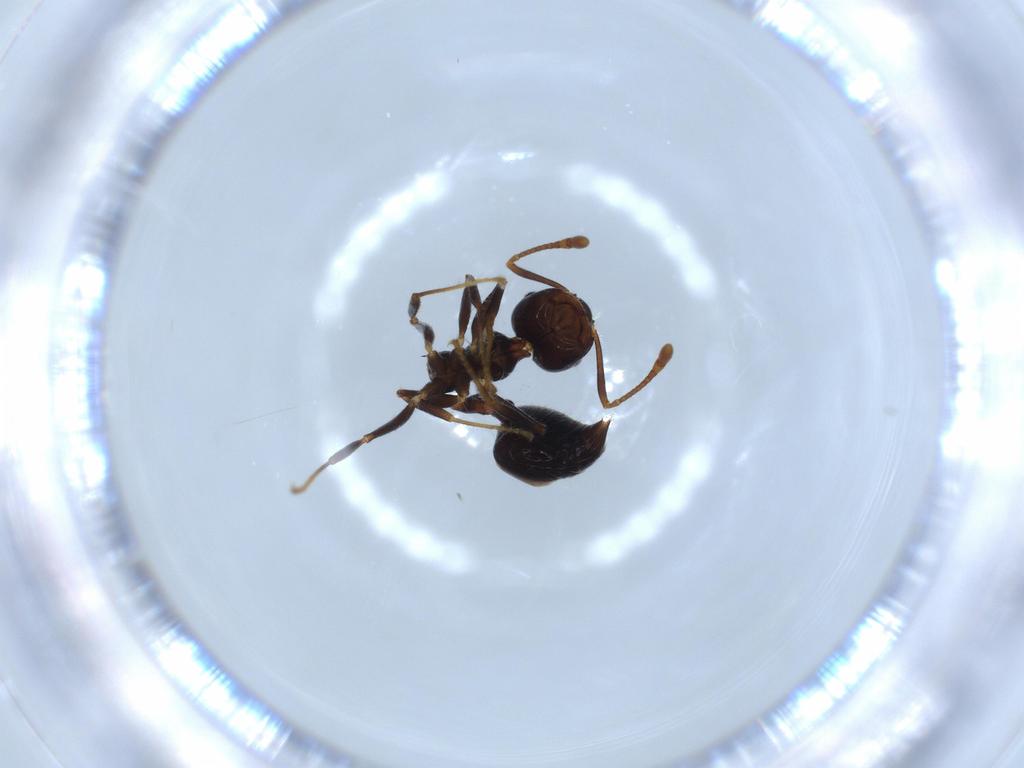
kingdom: Animalia
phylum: Arthropoda
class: Insecta
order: Hymenoptera
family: Formicidae
